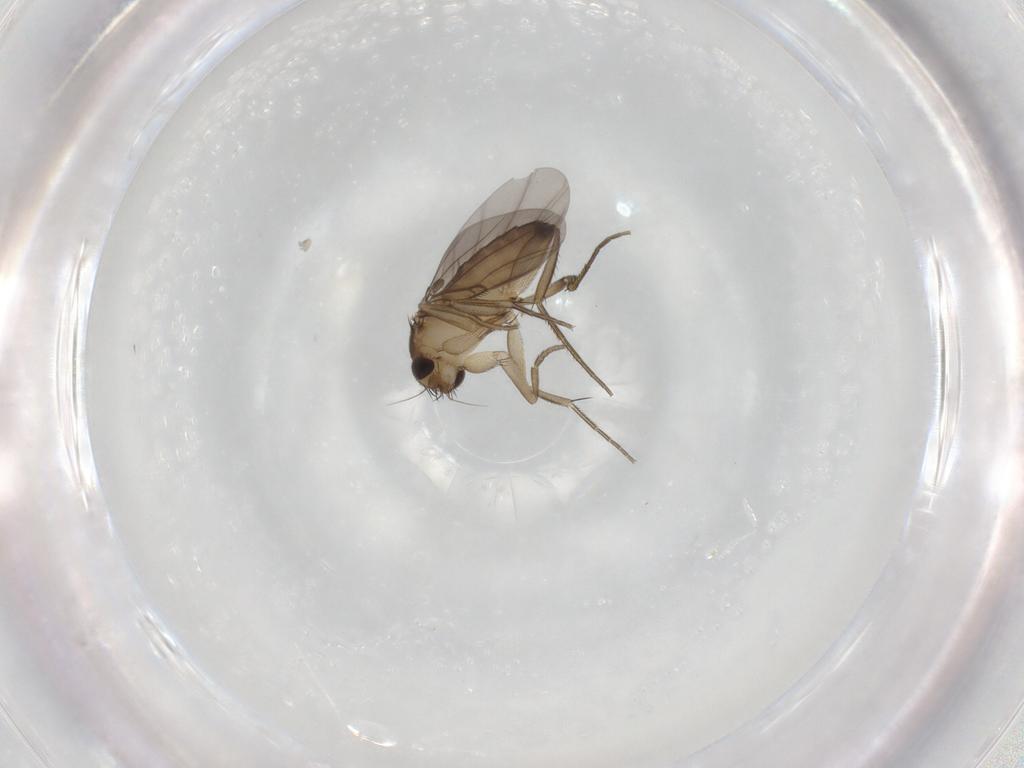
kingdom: Animalia
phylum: Arthropoda
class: Insecta
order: Diptera
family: Phoridae
